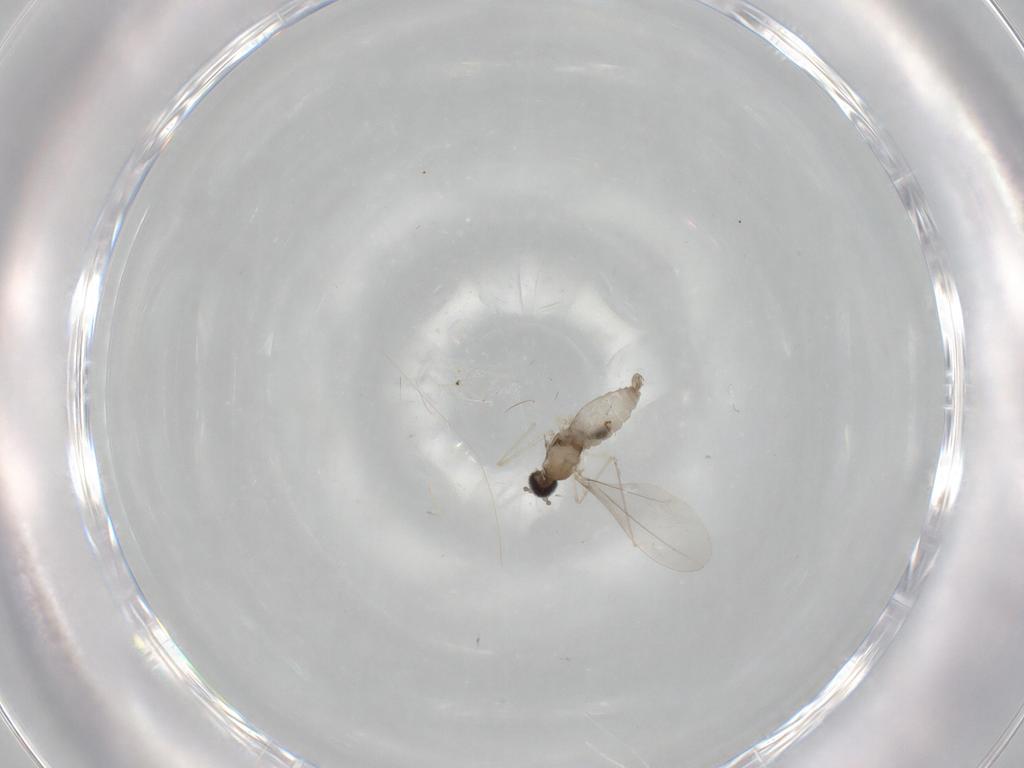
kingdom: Animalia
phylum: Arthropoda
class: Insecta
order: Diptera
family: Cecidomyiidae
